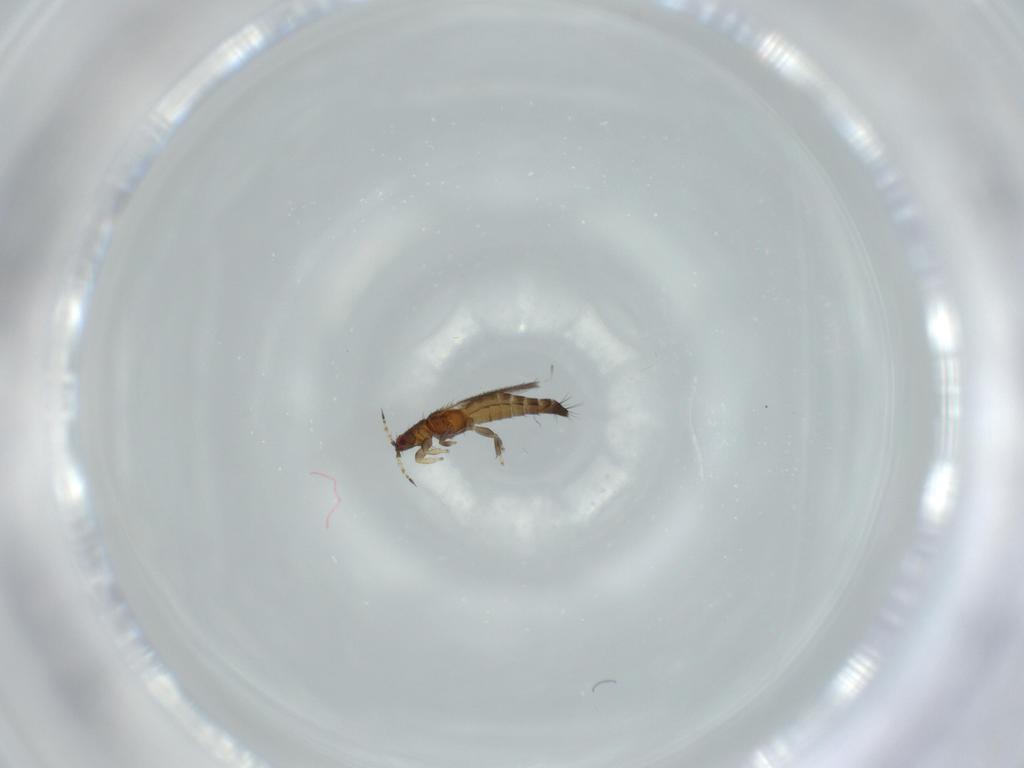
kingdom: Animalia
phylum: Arthropoda
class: Insecta
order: Thysanoptera
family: Thripidae
